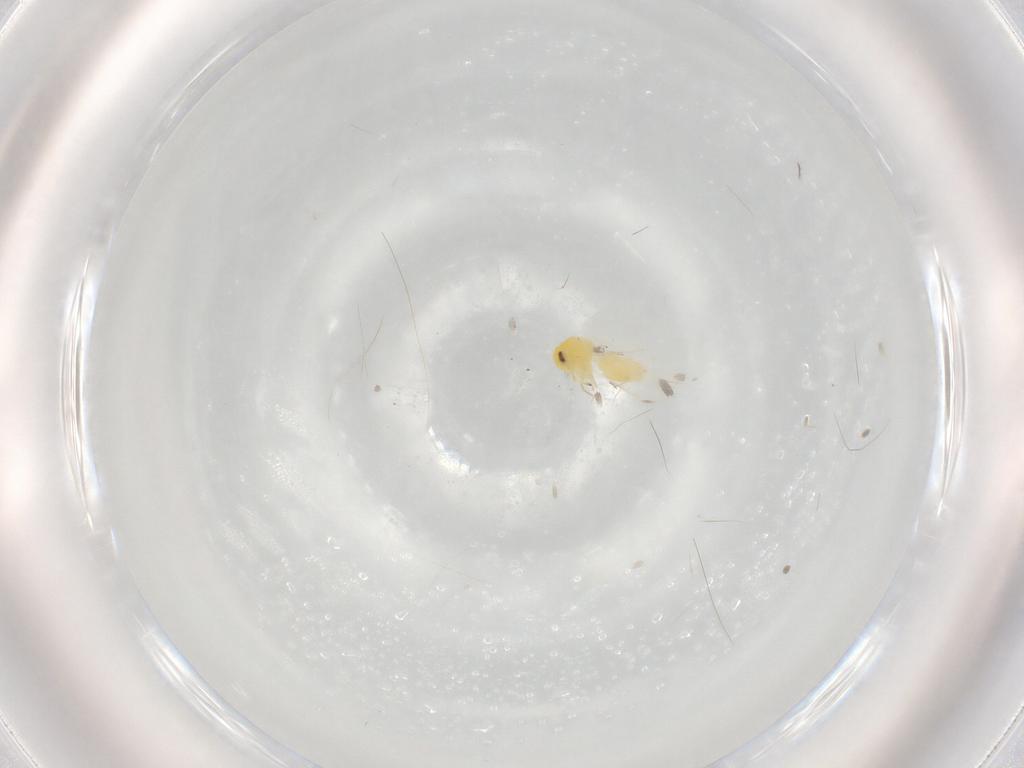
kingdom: Animalia
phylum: Arthropoda
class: Insecta
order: Hemiptera
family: Aleyrodidae
